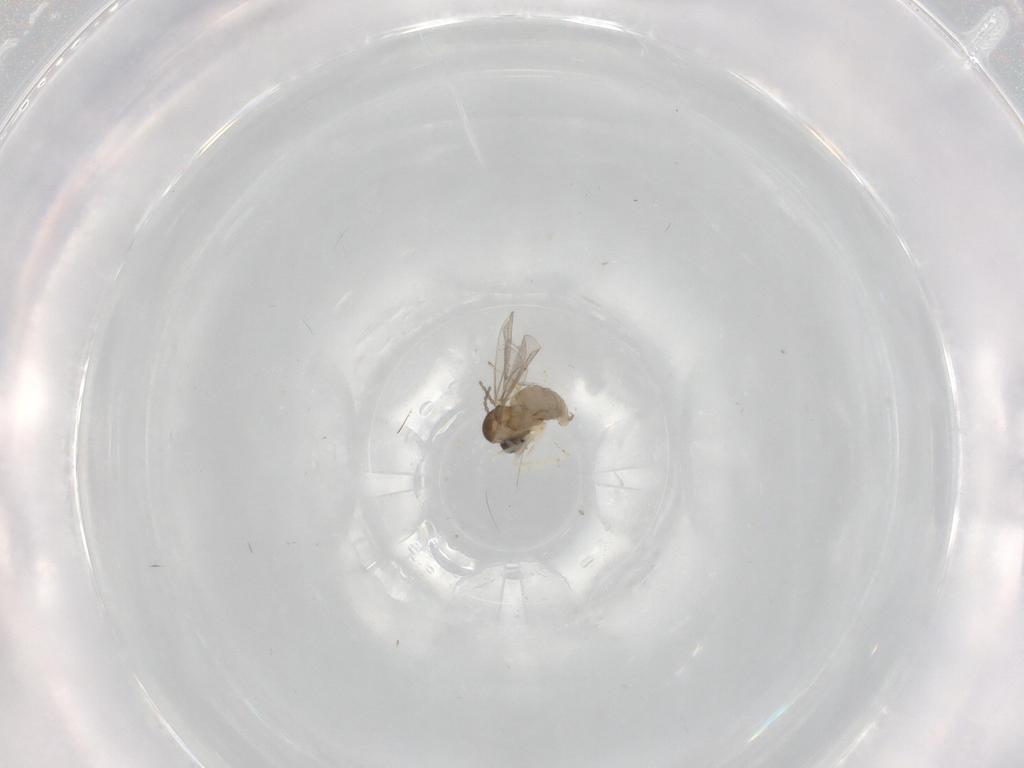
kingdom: Animalia
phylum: Arthropoda
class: Insecta
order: Diptera
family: Cecidomyiidae
